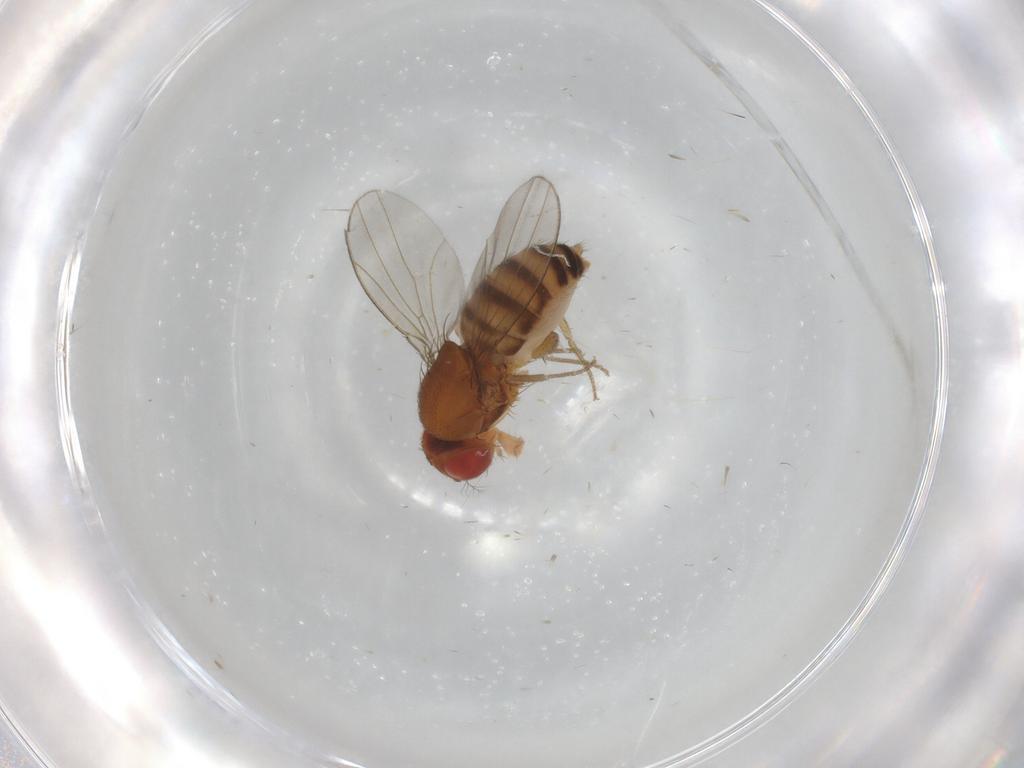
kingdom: Animalia
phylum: Arthropoda
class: Insecta
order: Diptera
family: Drosophilidae
